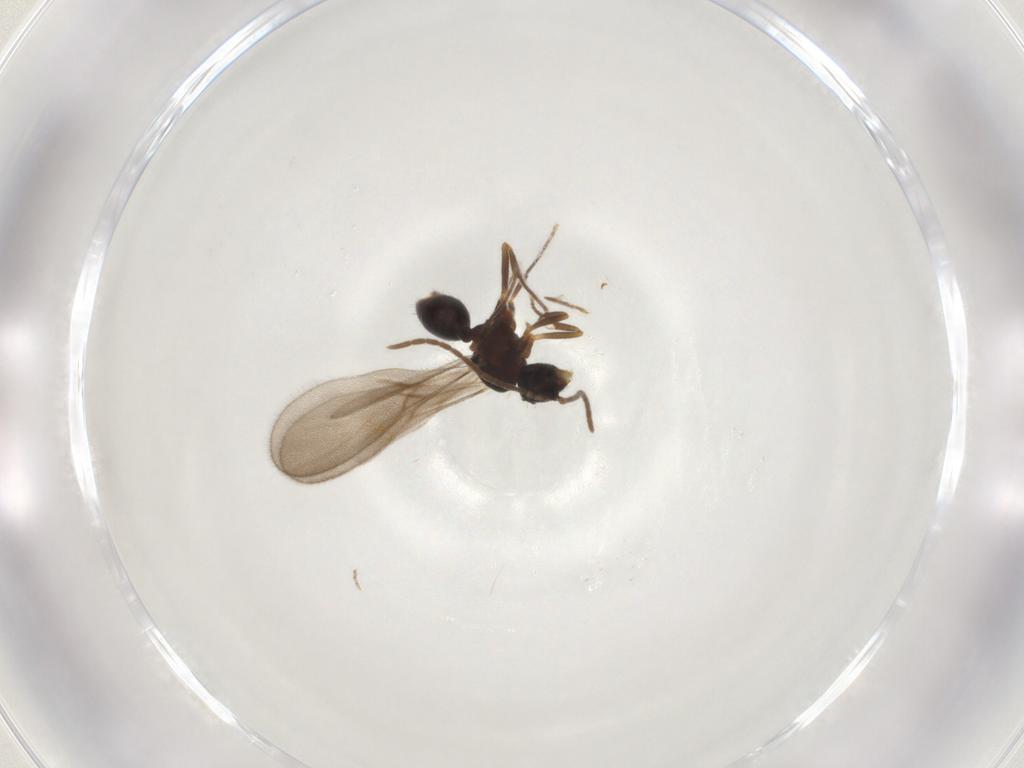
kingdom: Animalia
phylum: Arthropoda
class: Insecta
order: Hymenoptera
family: Formicidae
